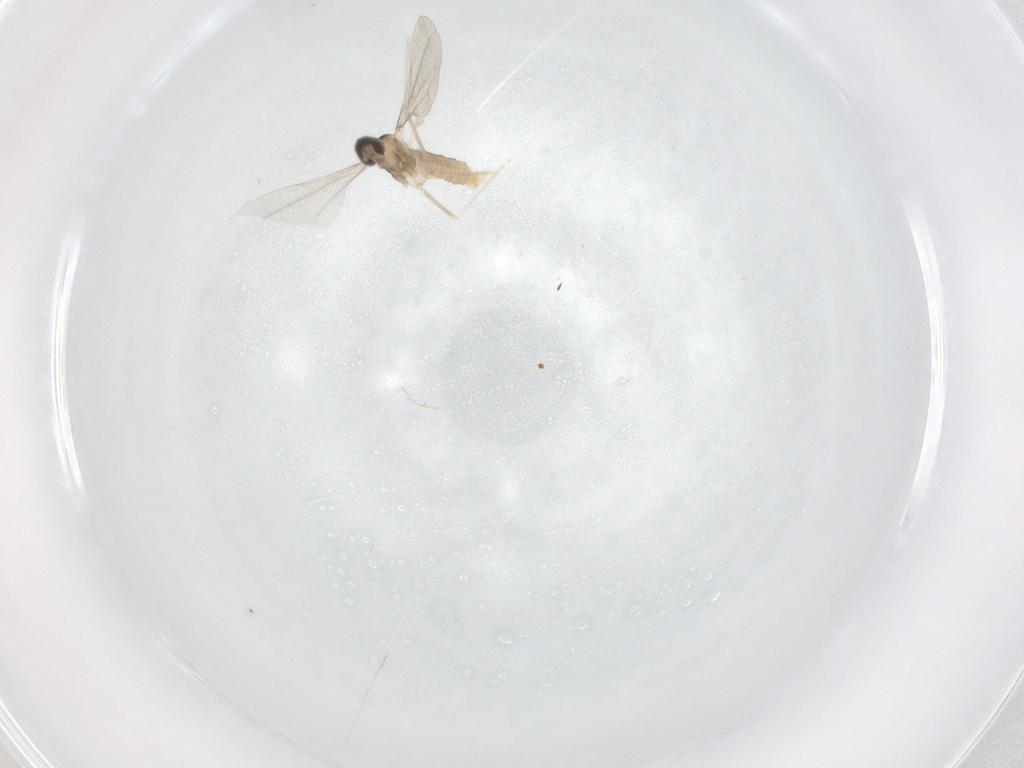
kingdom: Animalia
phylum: Arthropoda
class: Insecta
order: Diptera
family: Cecidomyiidae
